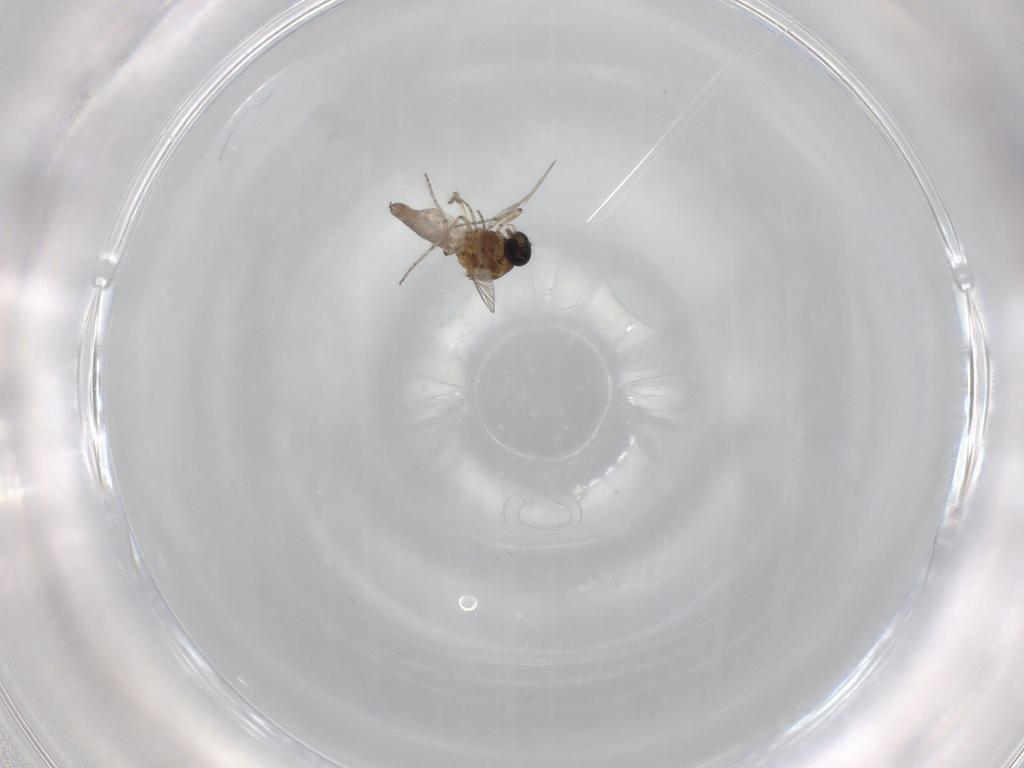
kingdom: Animalia
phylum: Arthropoda
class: Insecta
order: Diptera
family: Ceratopogonidae
